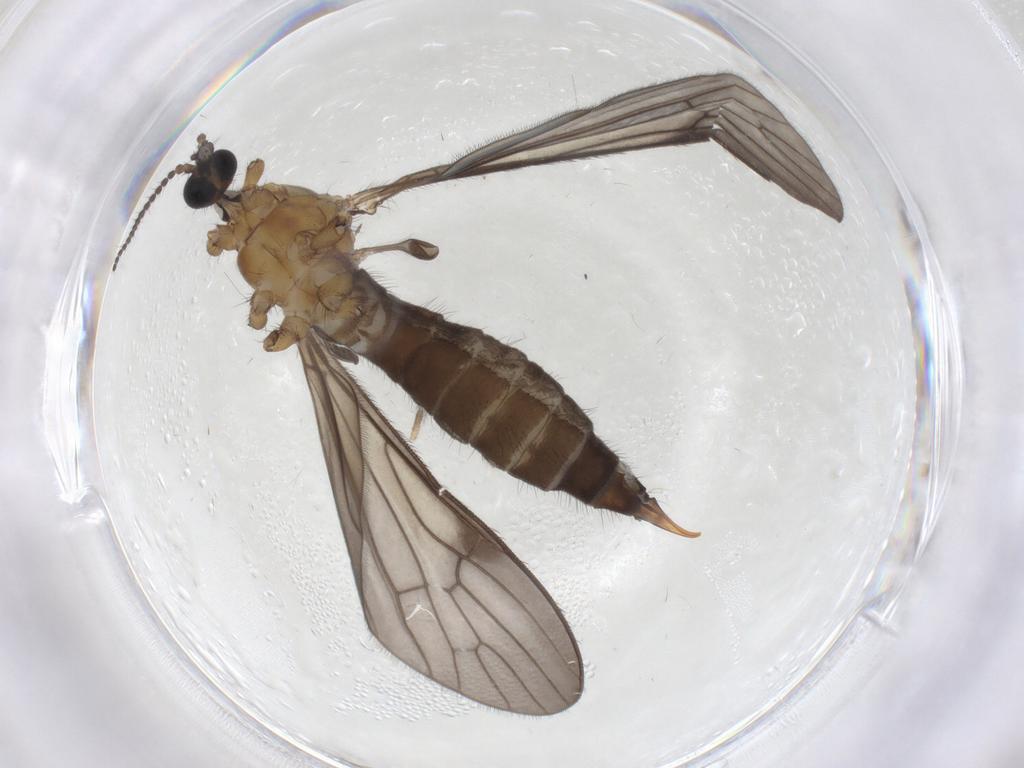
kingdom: Animalia
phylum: Arthropoda
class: Insecta
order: Diptera
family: Limoniidae
